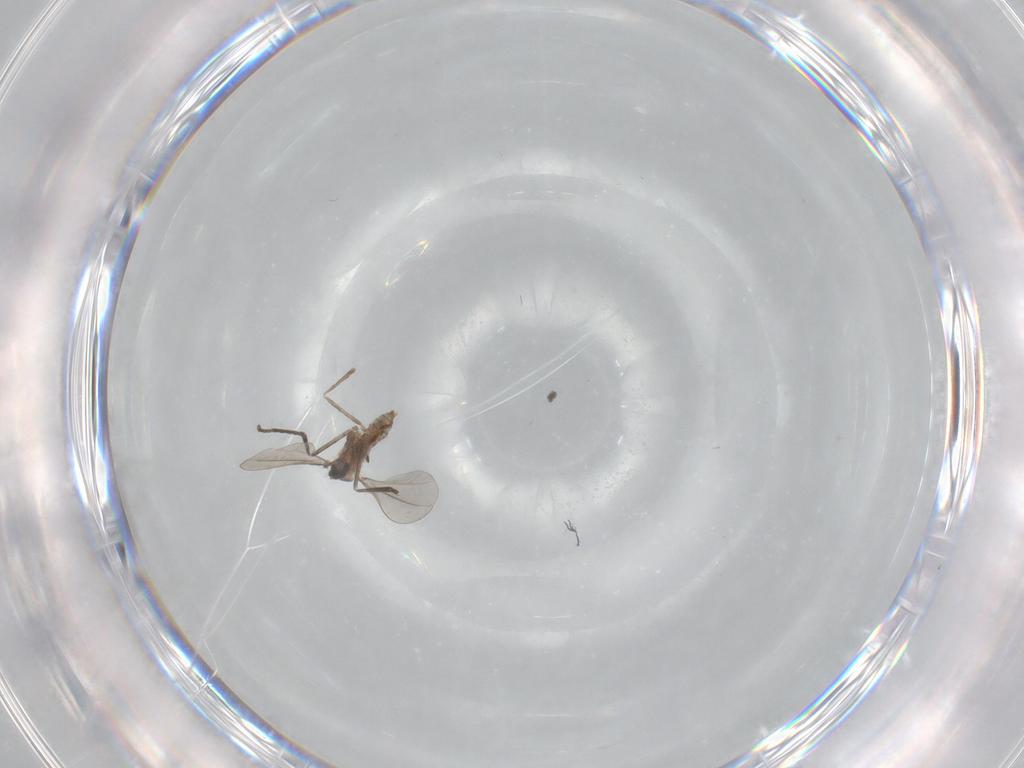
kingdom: Animalia
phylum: Arthropoda
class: Insecta
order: Diptera
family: Cecidomyiidae
